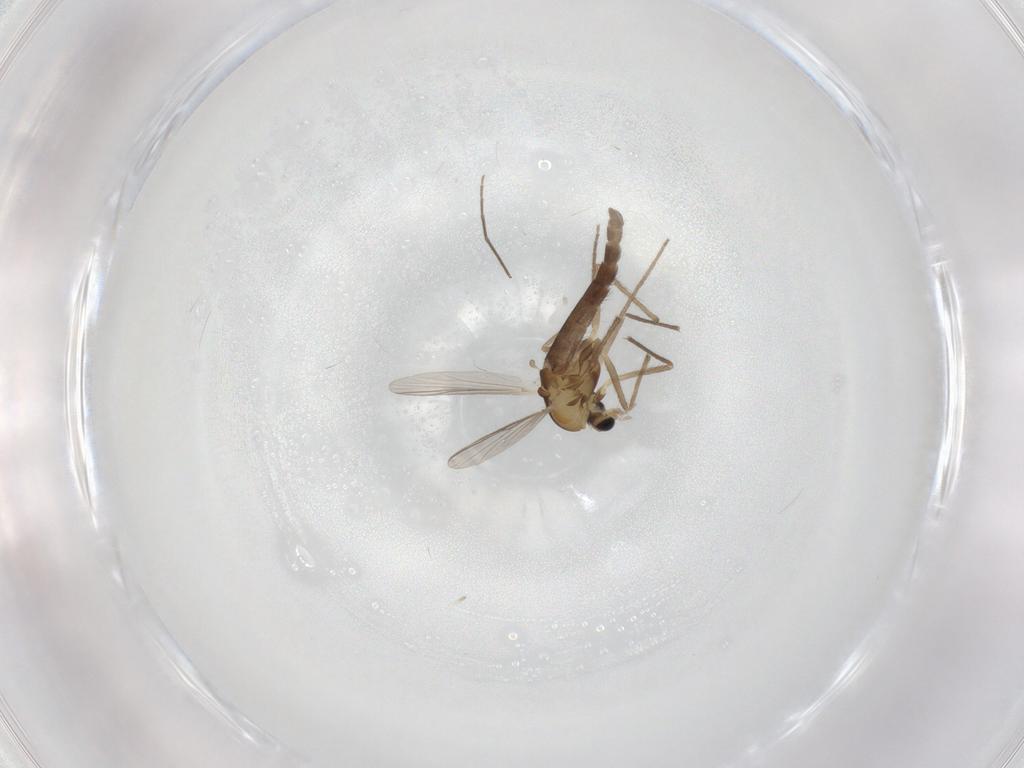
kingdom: Animalia
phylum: Arthropoda
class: Insecta
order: Diptera
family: Chironomidae
